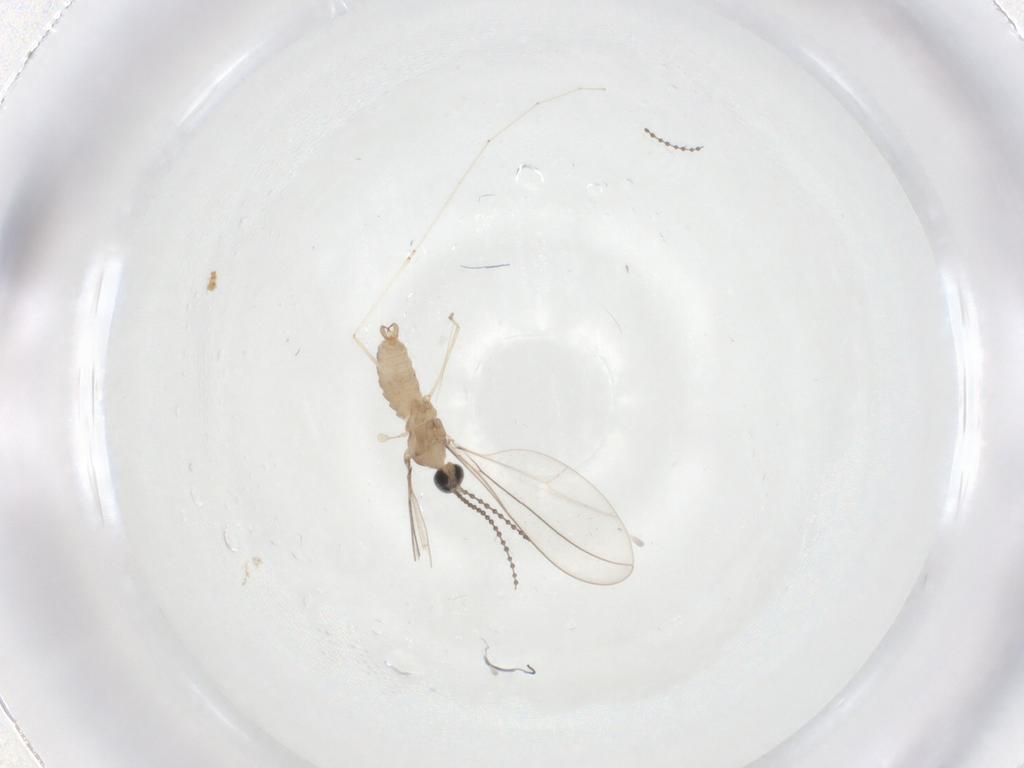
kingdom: Animalia
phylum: Arthropoda
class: Insecta
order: Diptera
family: Cecidomyiidae
